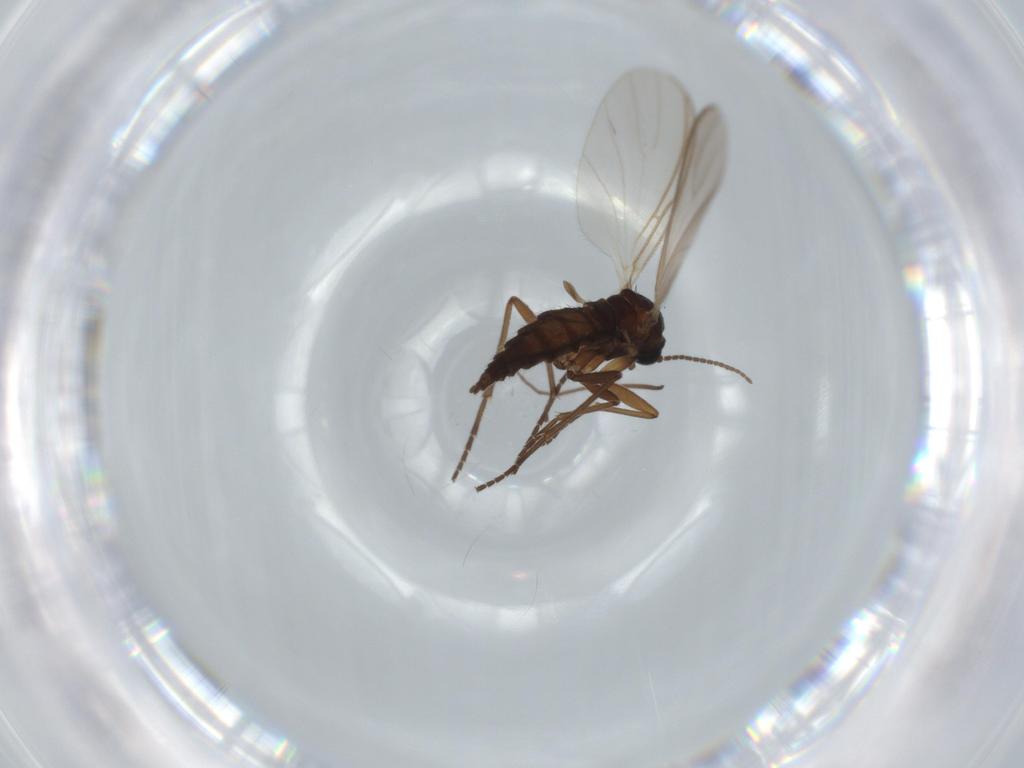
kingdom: Animalia
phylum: Arthropoda
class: Insecta
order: Diptera
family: Sciaridae
